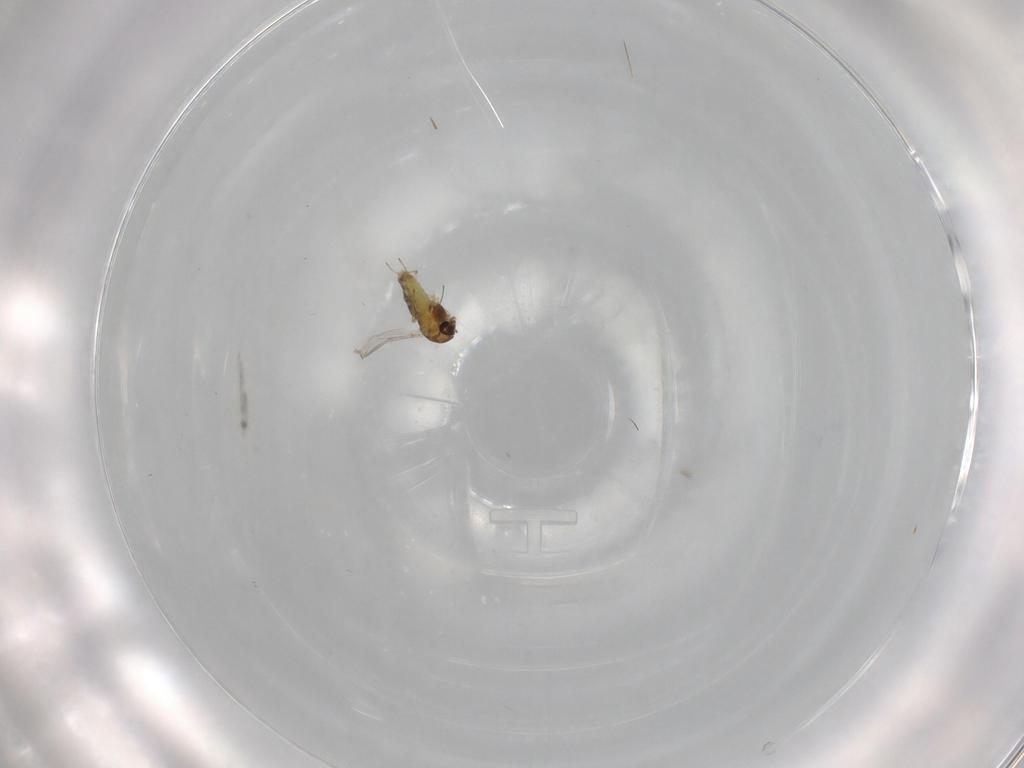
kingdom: Animalia
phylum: Arthropoda
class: Insecta
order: Diptera
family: Chironomidae
